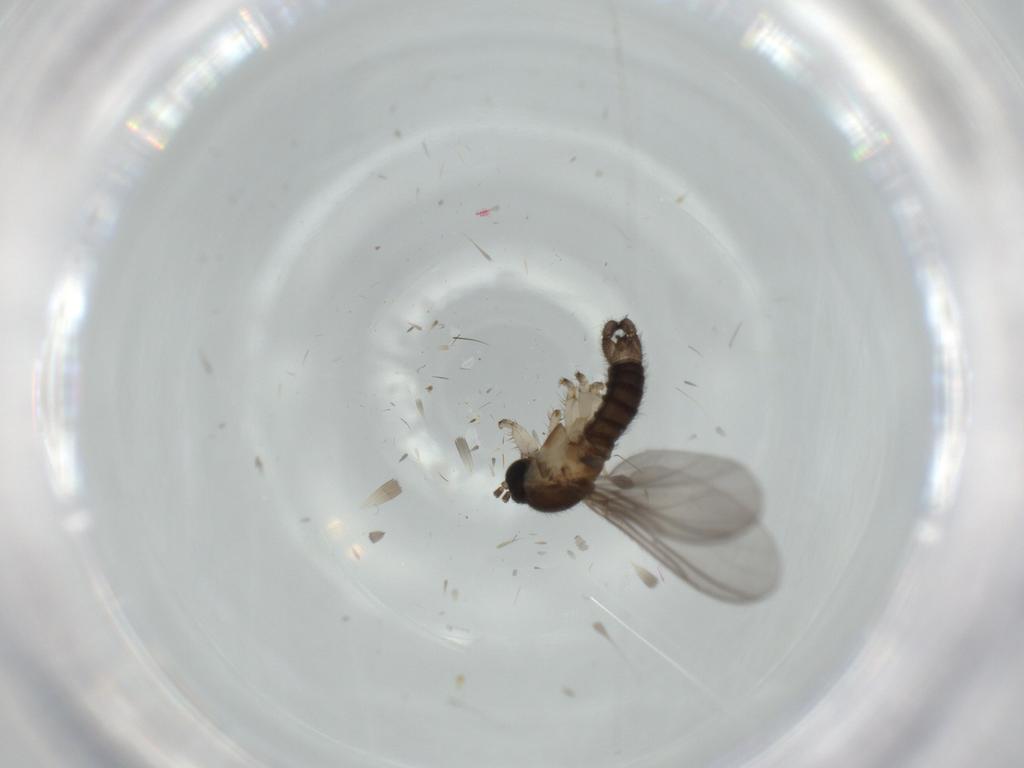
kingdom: Animalia
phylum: Arthropoda
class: Insecta
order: Diptera
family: Sciaridae
